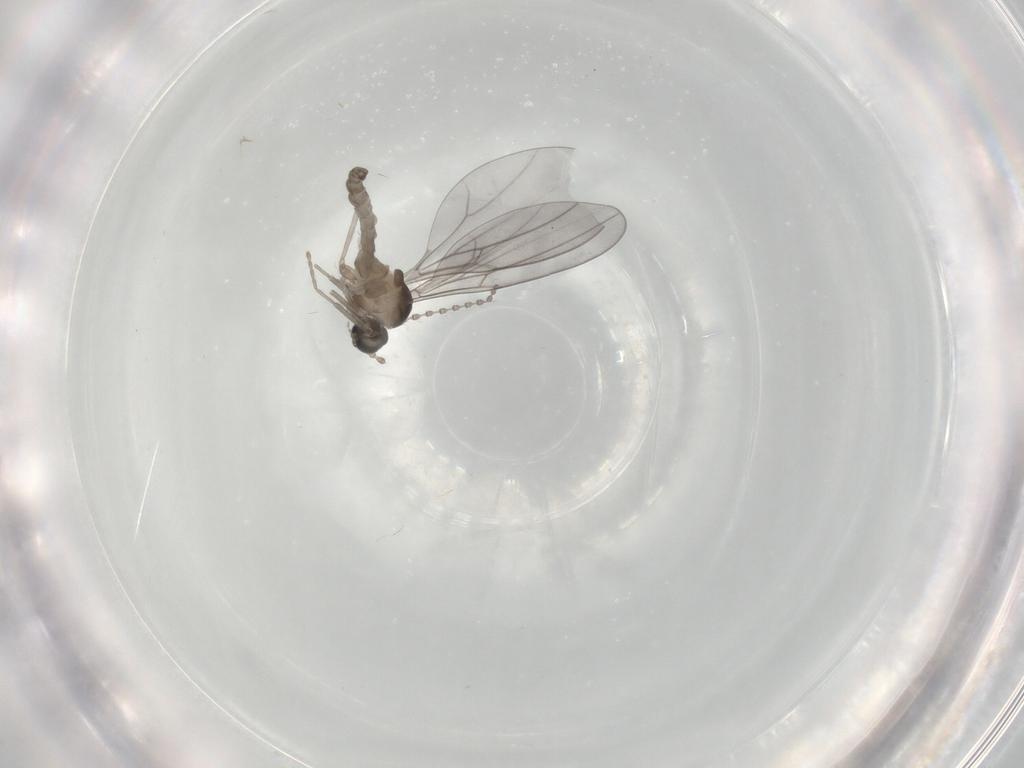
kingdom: Animalia
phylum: Arthropoda
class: Insecta
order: Diptera
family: Cecidomyiidae
